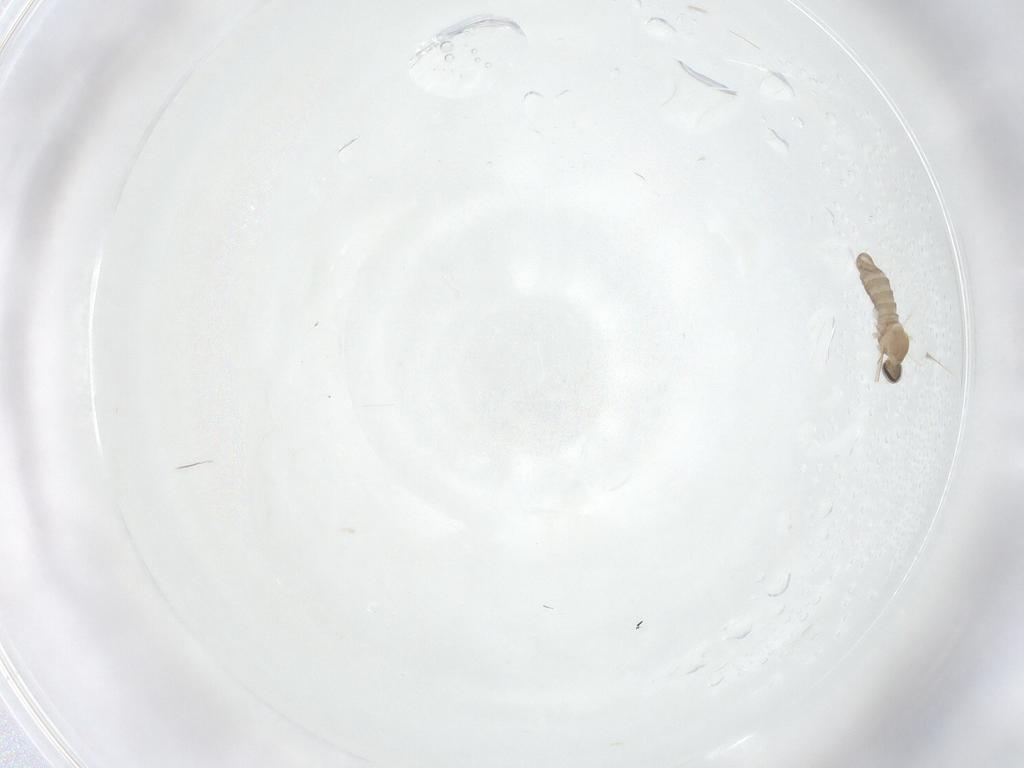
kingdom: Animalia
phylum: Arthropoda
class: Insecta
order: Diptera
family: Cecidomyiidae
